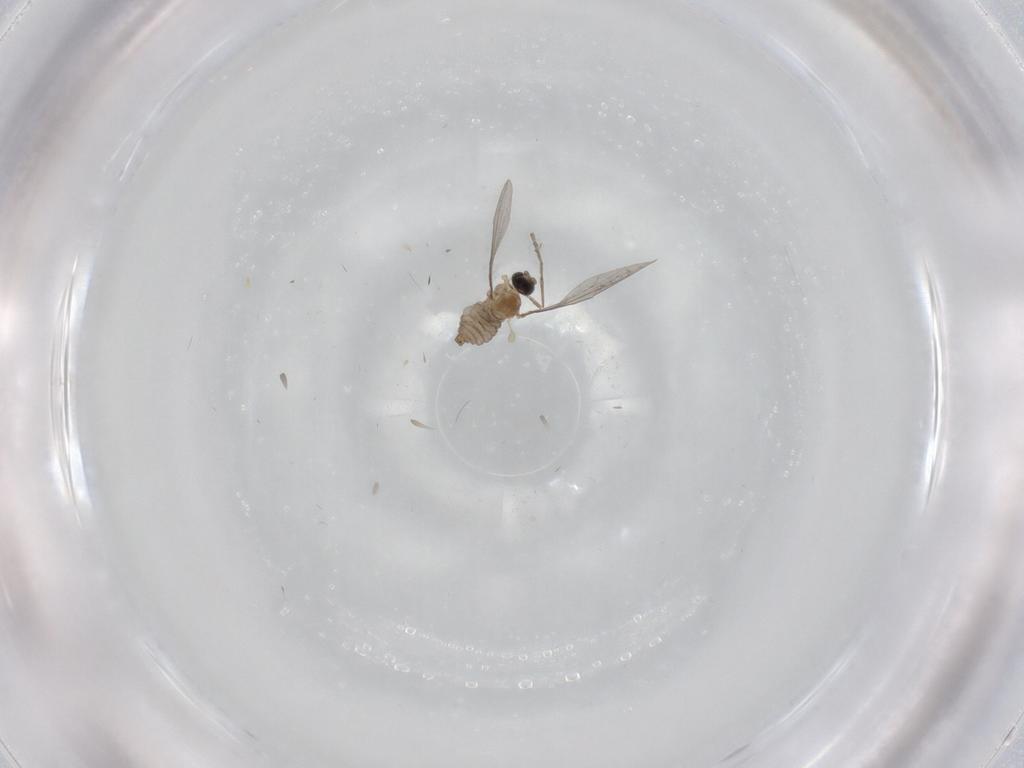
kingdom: Animalia
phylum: Arthropoda
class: Insecta
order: Diptera
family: Cecidomyiidae
